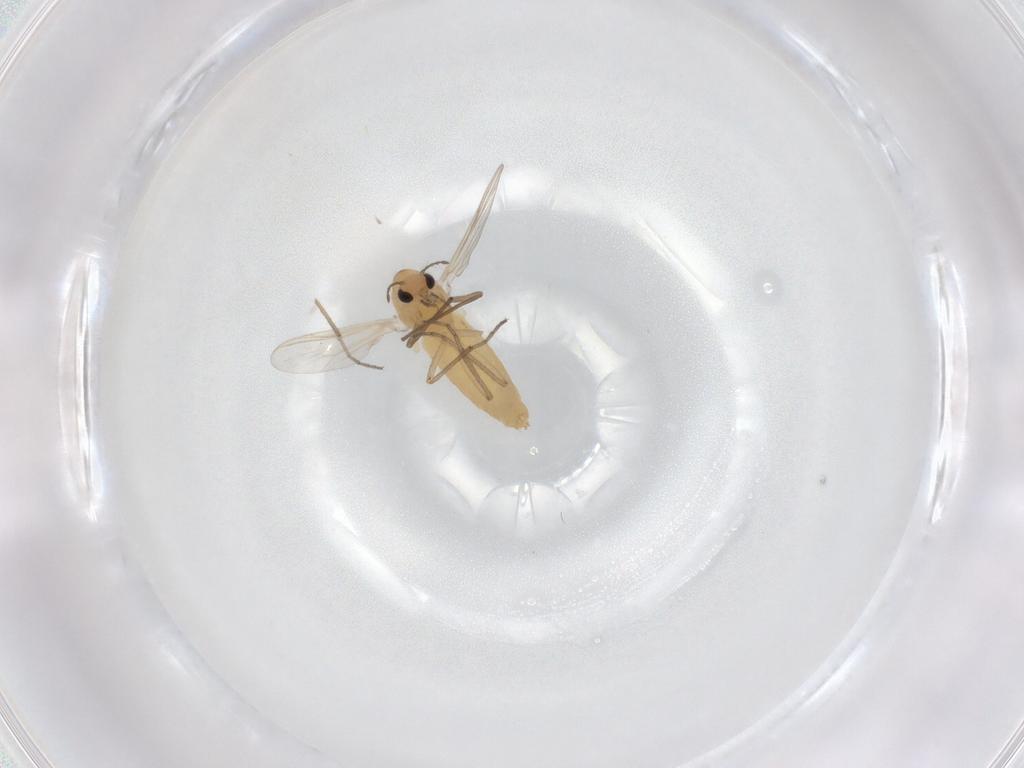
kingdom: Animalia
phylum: Arthropoda
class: Insecta
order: Diptera
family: Chironomidae
